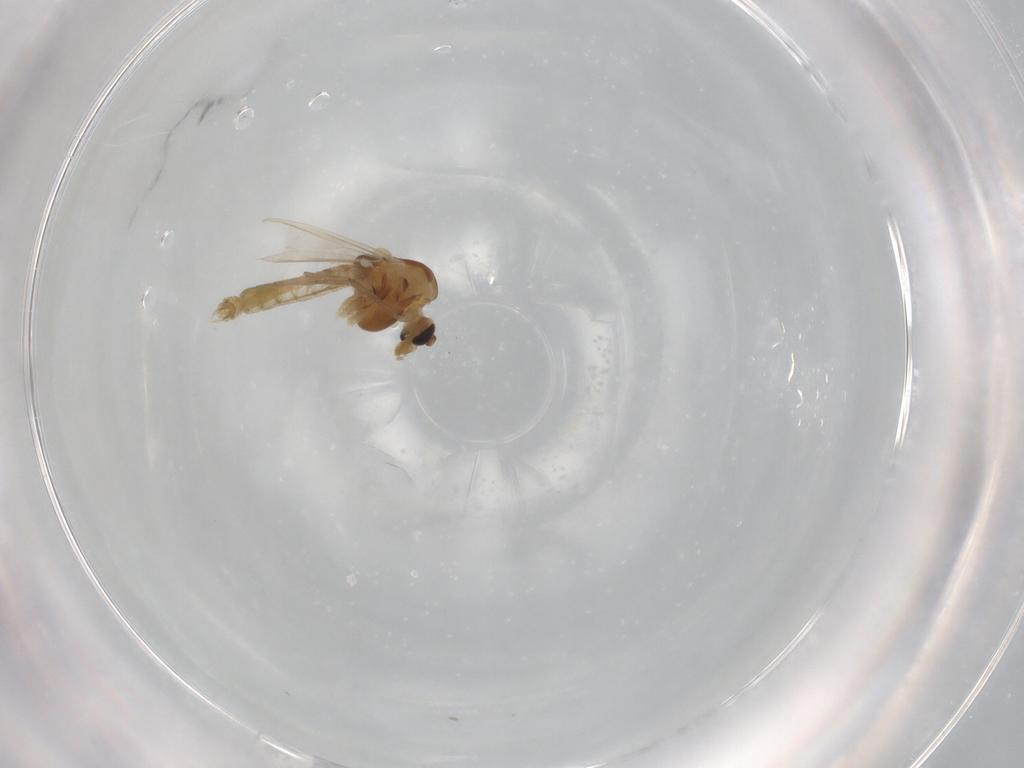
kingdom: Animalia
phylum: Arthropoda
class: Insecta
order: Diptera
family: Chironomidae
